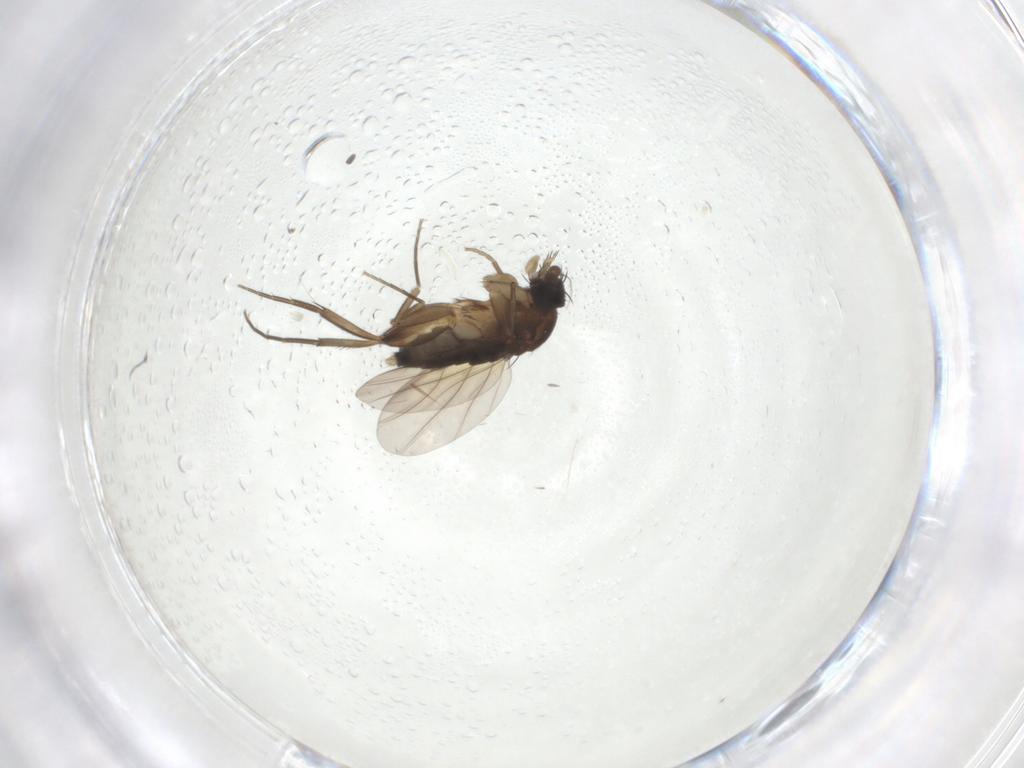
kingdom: Animalia
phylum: Arthropoda
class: Insecta
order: Diptera
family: Phoridae
